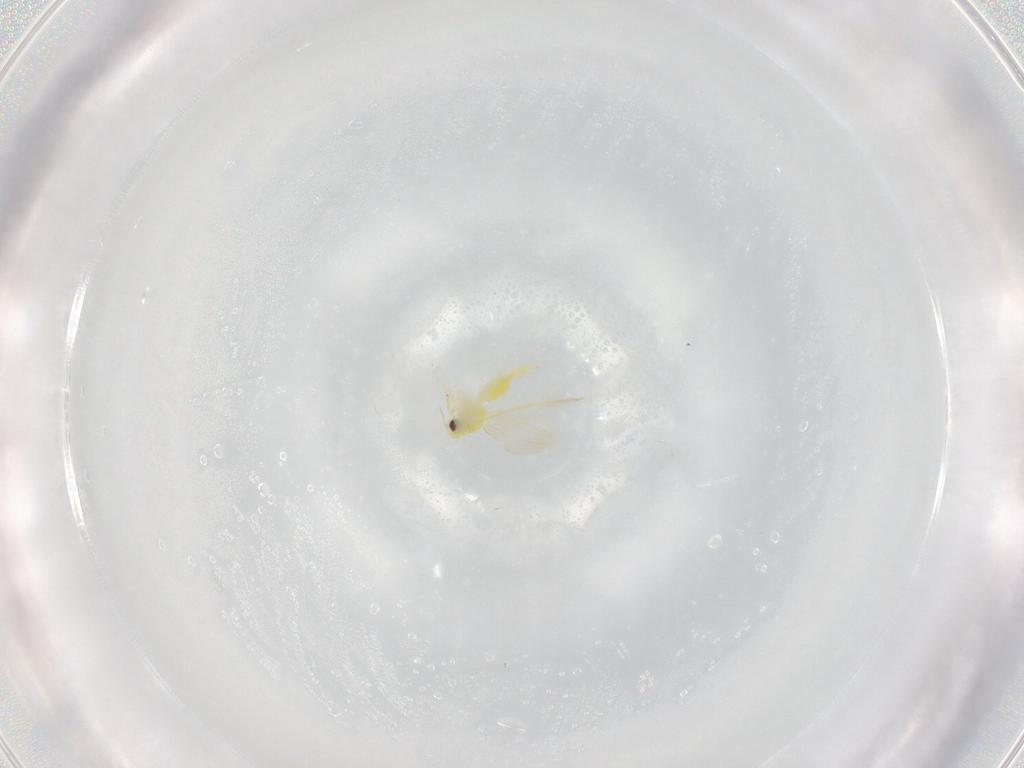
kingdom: Animalia
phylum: Arthropoda
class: Insecta
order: Hemiptera
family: Aleyrodidae
